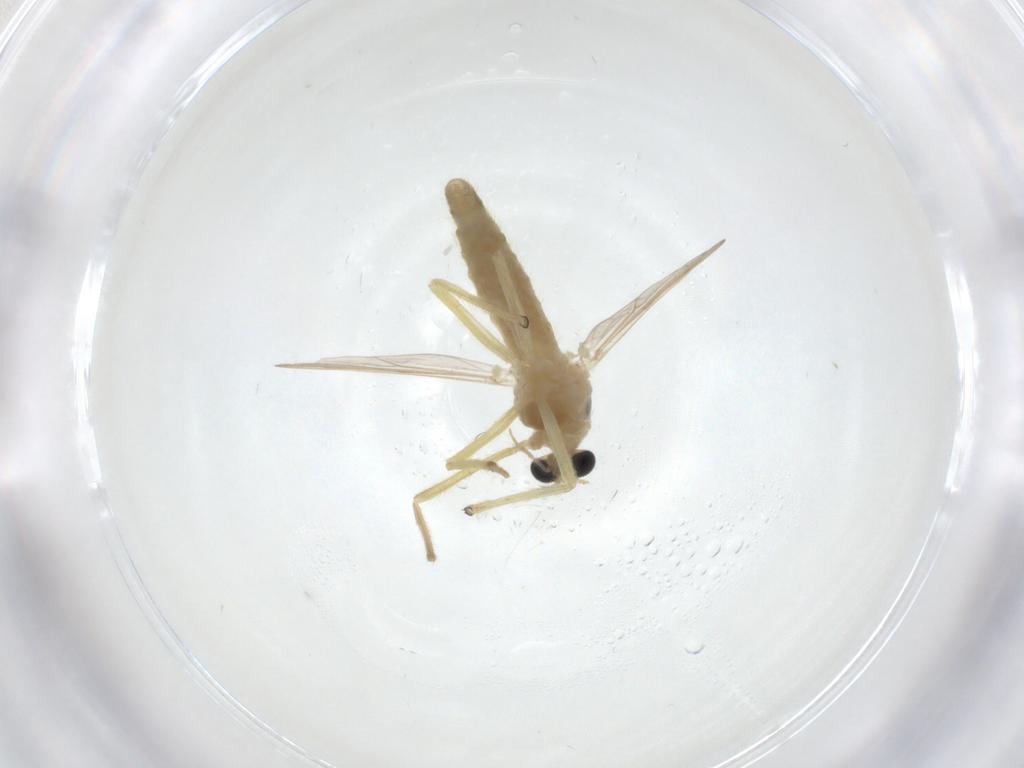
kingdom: Animalia
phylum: Arthropoda
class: Insecta
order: Diptera
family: Chironomidae
